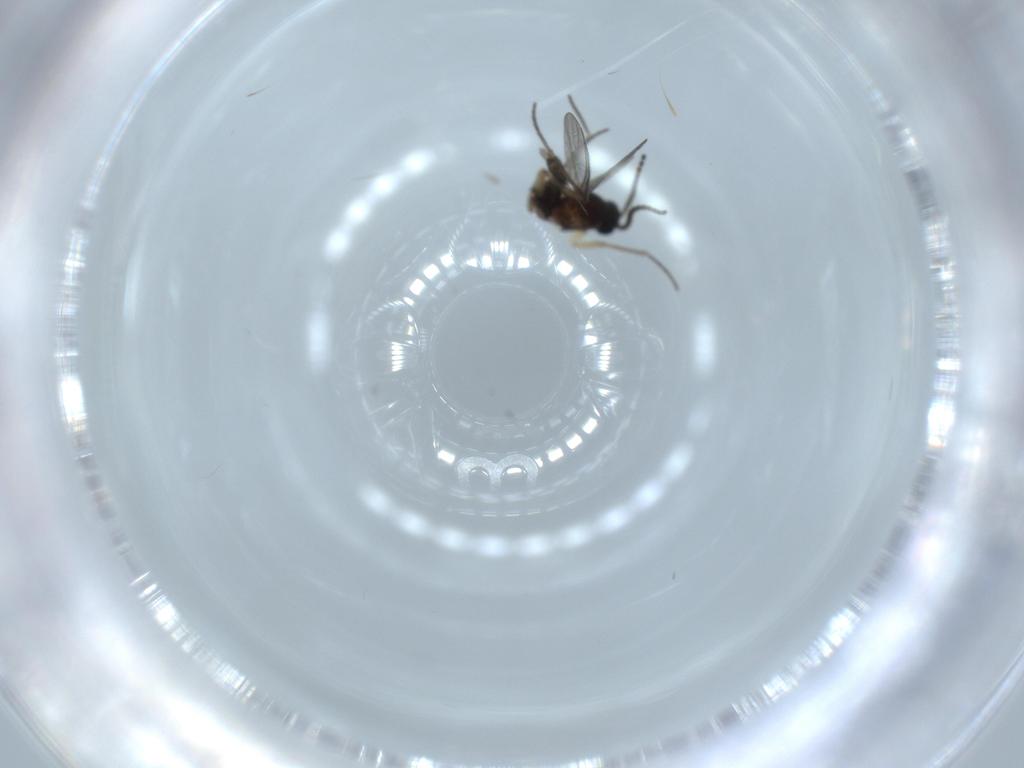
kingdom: Animalia
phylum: Arthropoda
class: Insecta
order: Diptera
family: Sciaridae
